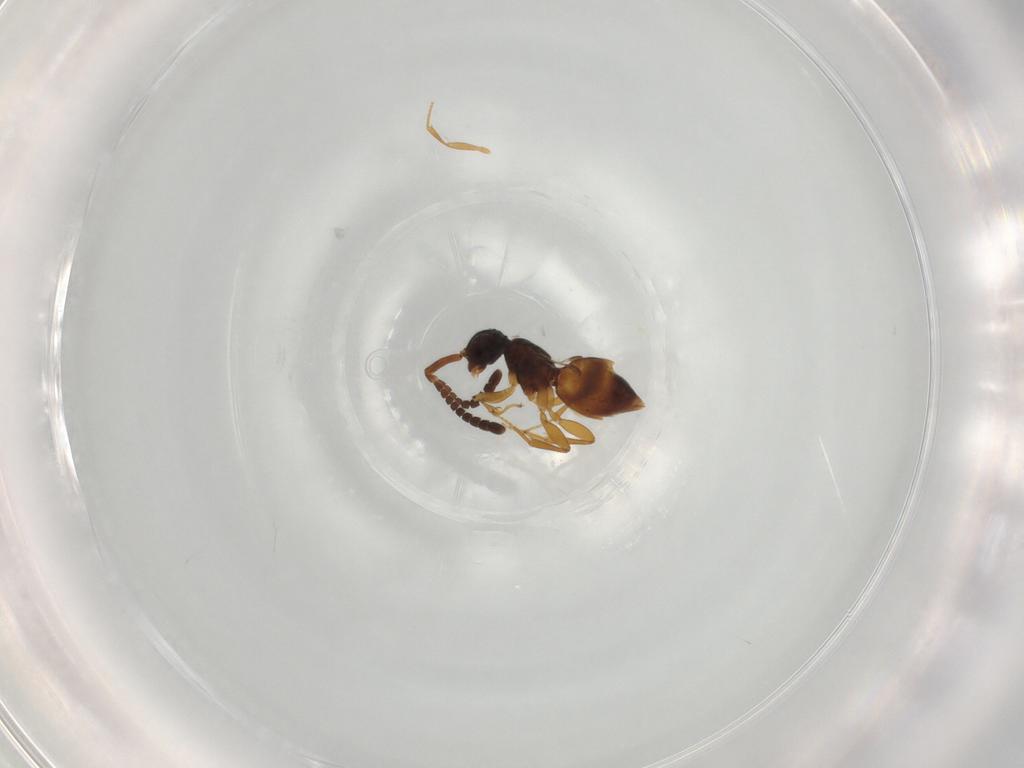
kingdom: Animalia
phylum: Arthropoda
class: Insecta
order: Hymenoptera
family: Megaspilidae
